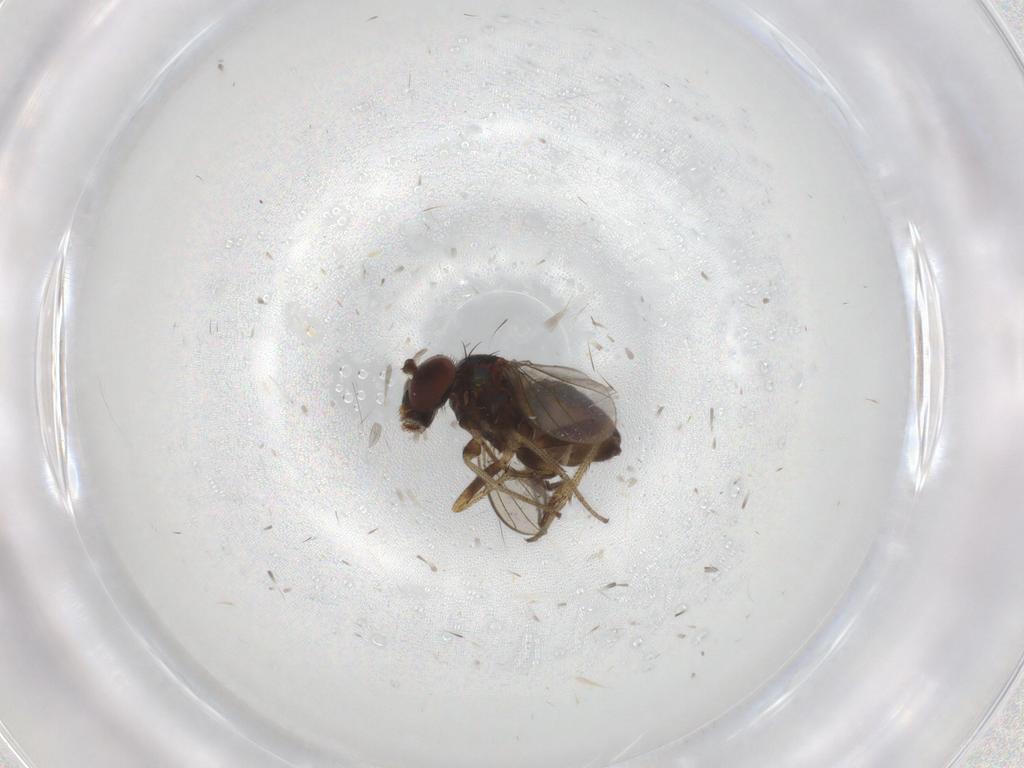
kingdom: Animalia
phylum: Arthropoda
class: Insecta
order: Diptera
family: Dolichopodidae
